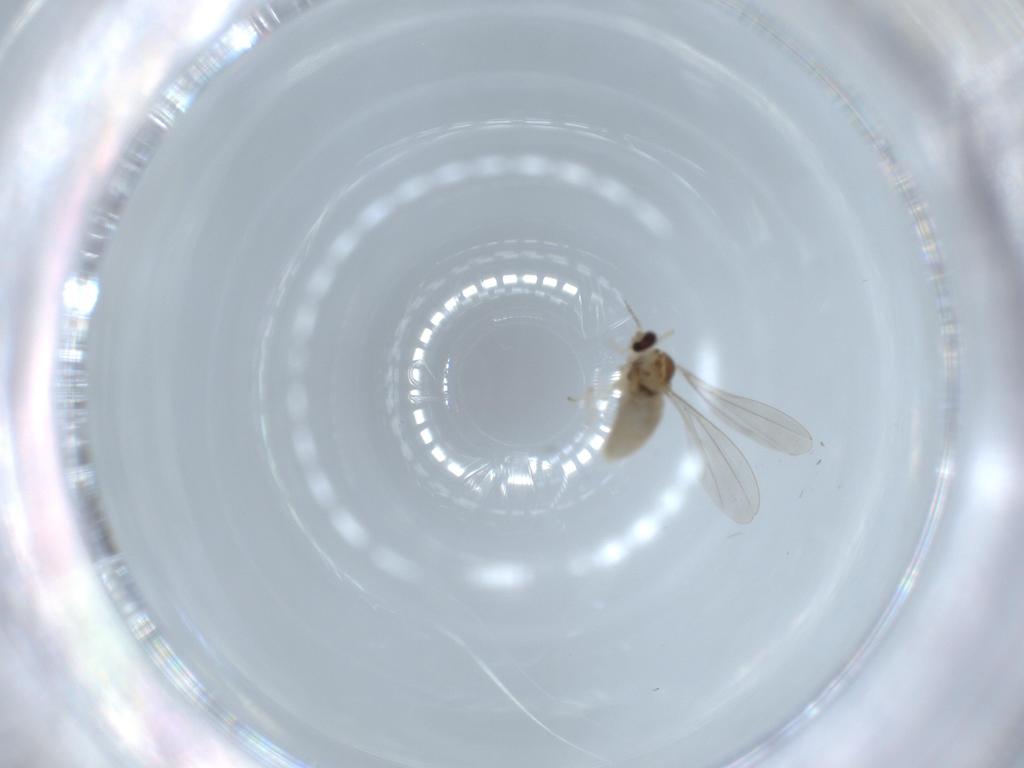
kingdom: Animalia
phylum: Arthropoda
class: Insecta
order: Diptera
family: Cecidomyiidae
